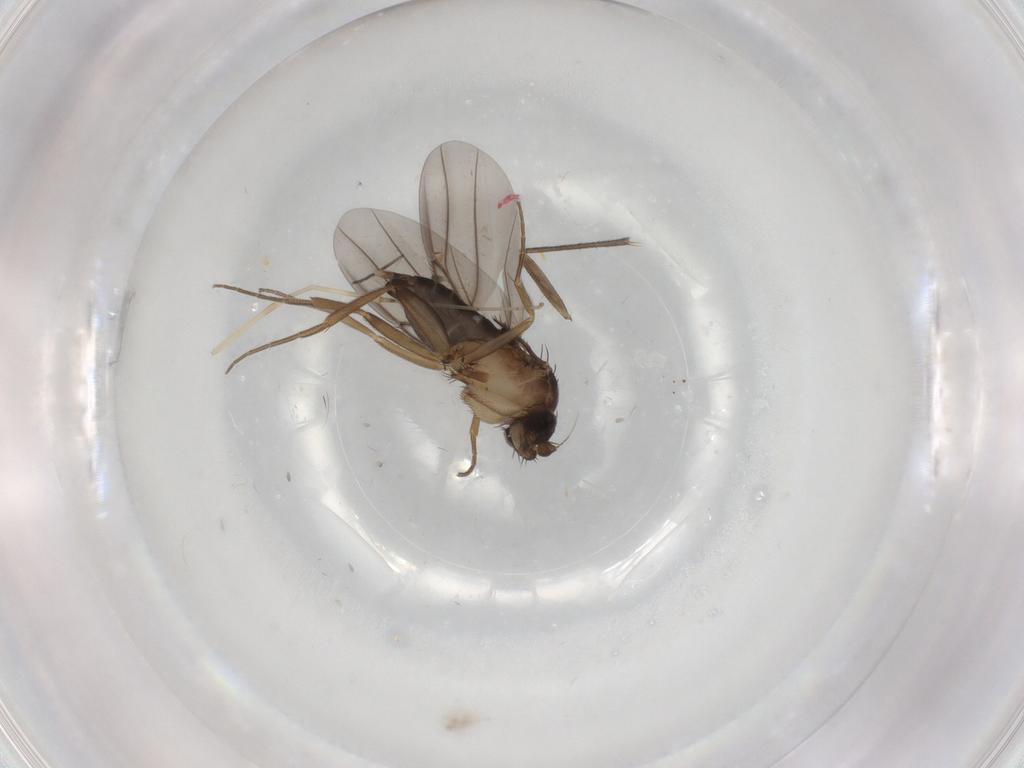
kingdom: Animalia
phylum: Arthropoda
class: Insecta
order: Diptera
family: Cecidomyiidae
